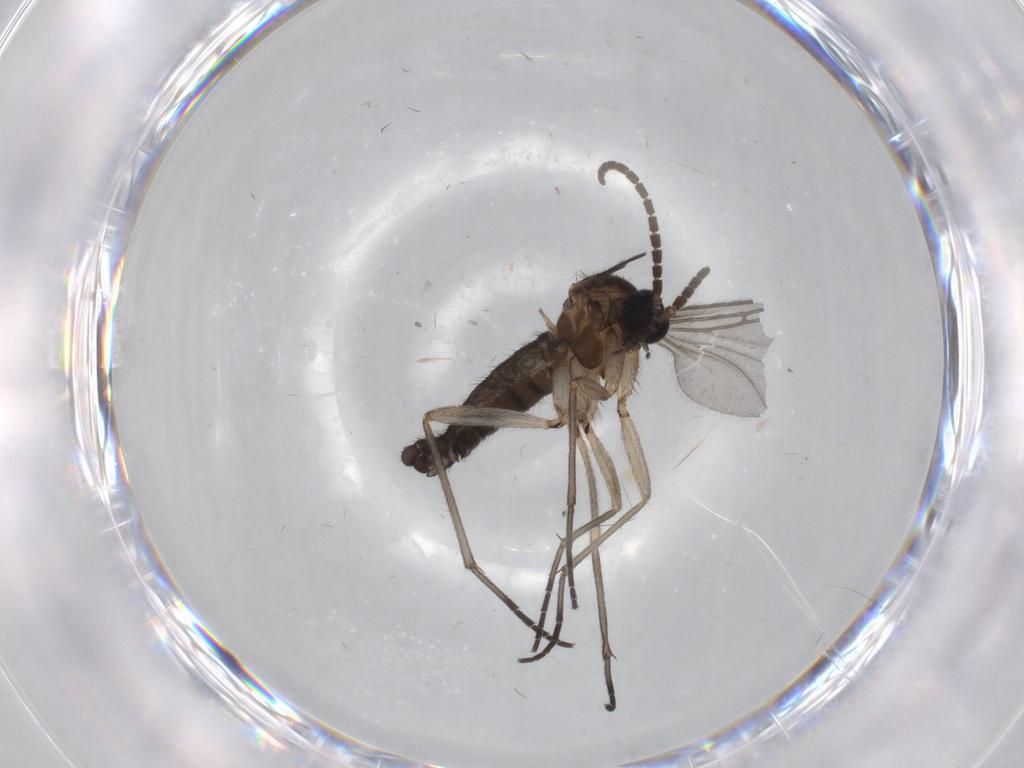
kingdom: Animalia
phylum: Arthropoda
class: Insecta
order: Diptera
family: Sciaridae
